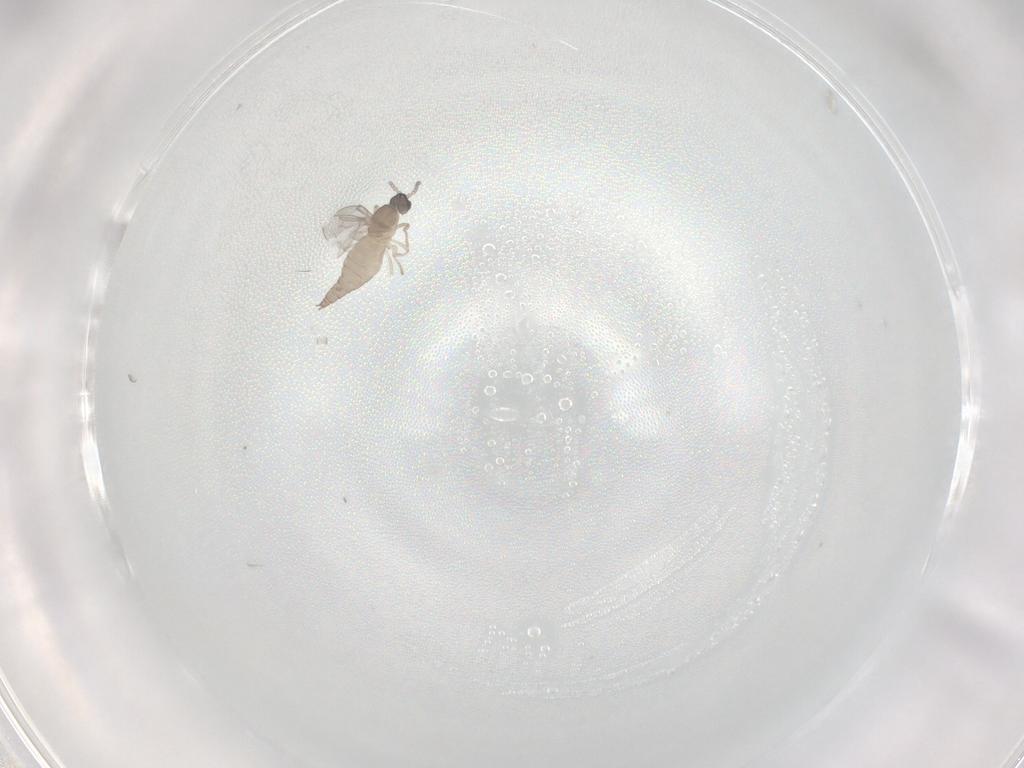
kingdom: Animalia
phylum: Arthropoda
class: Insecta
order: Diptera
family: Cecidomyiidae
